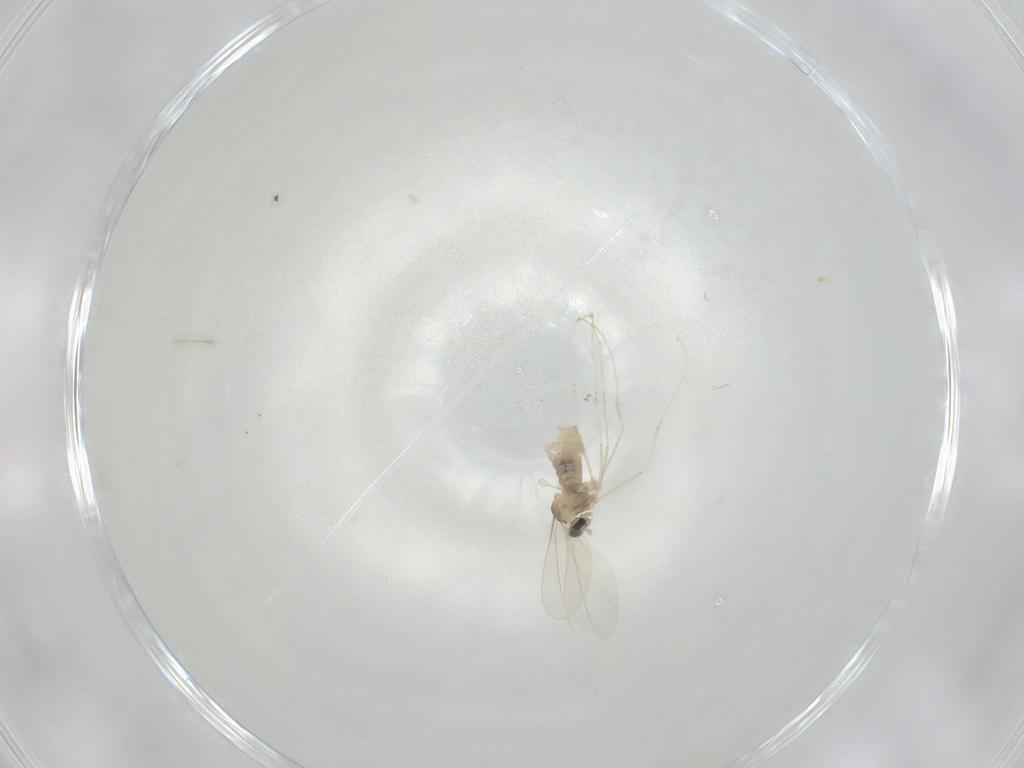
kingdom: Animalia
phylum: Arthropoda
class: Insecta
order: Diptera
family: Cecidomyiidae
